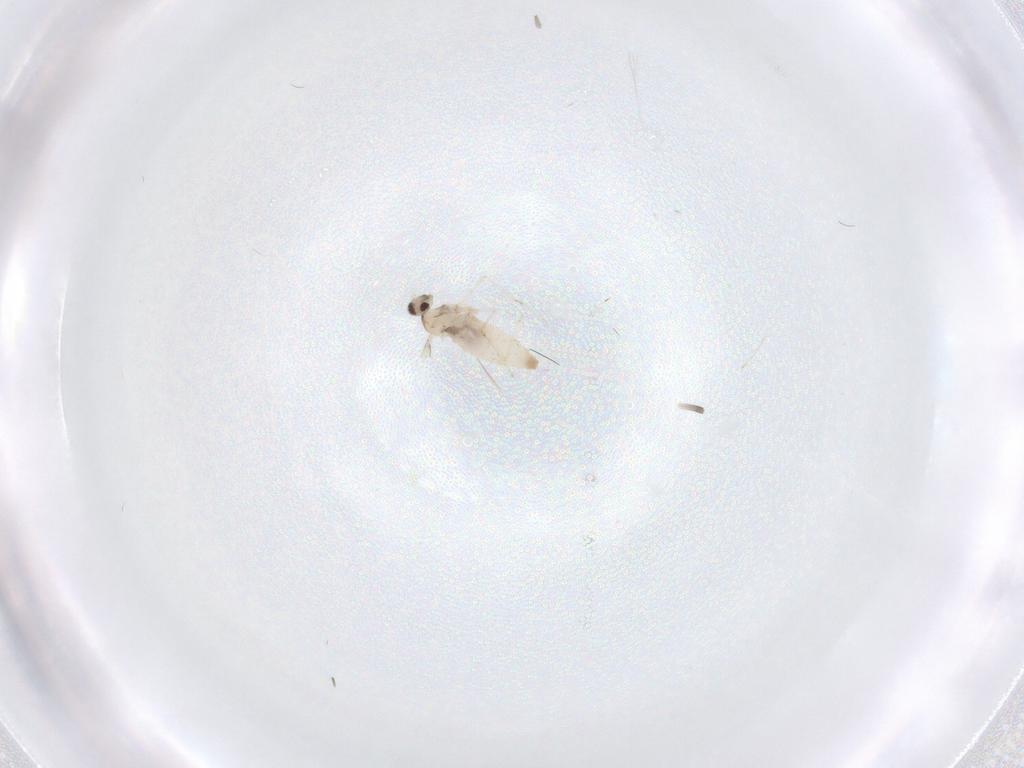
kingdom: Animalia
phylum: Arthropoda
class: Insecta
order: Diptera
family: Cecidomyiidae
